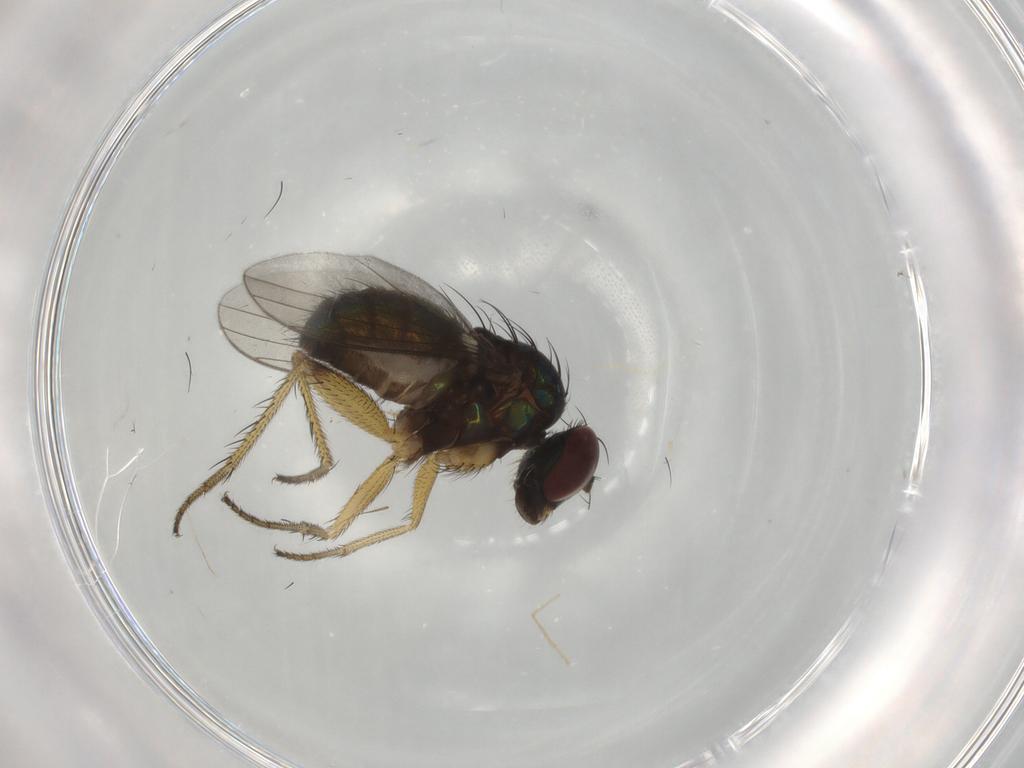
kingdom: Animalia
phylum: Arthropoda
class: Insecta
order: Diptera
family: Dolichopodidae
